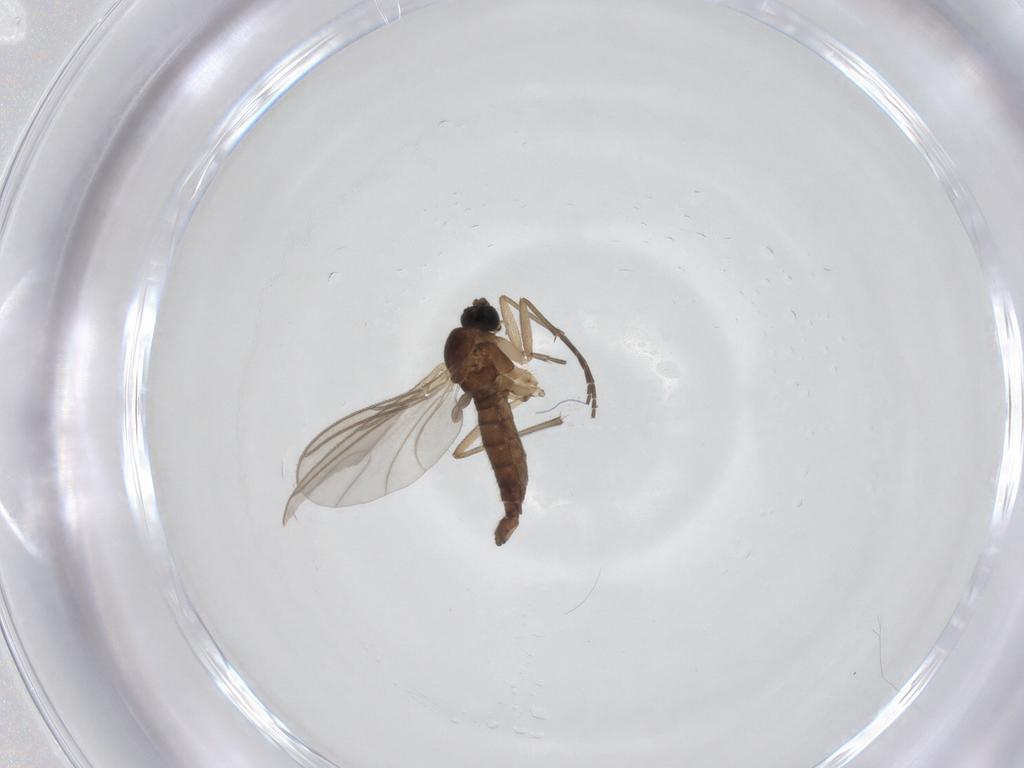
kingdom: Animalia
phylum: Arthropoda
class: Insecta
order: Diptera
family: Sciaridae
